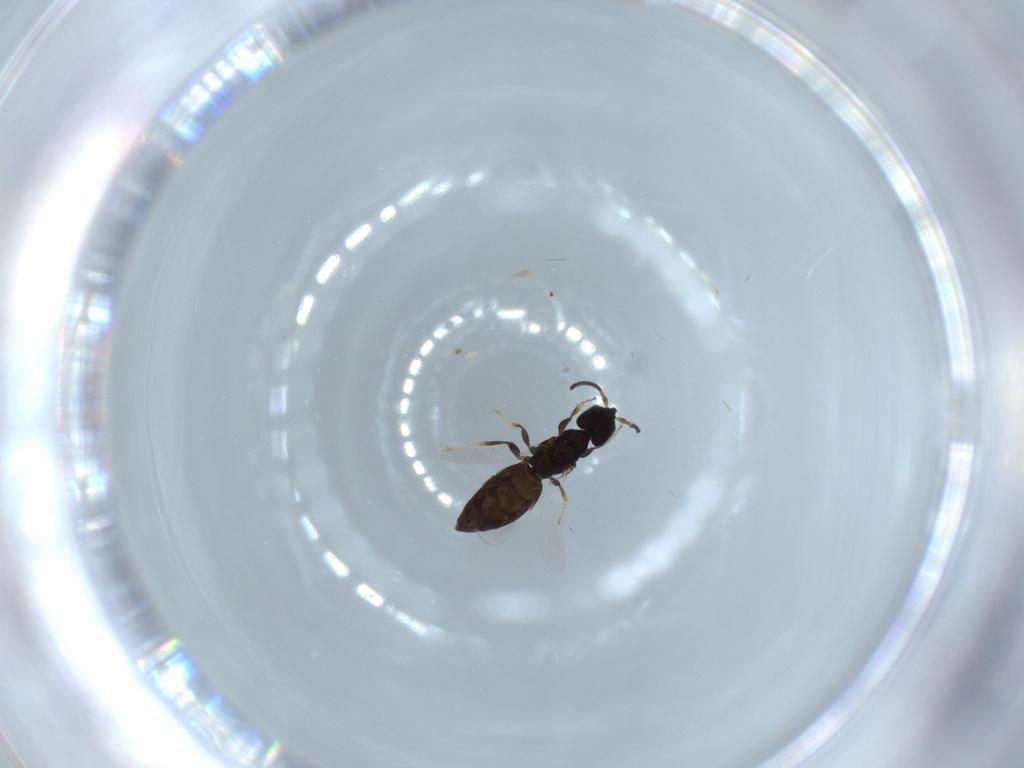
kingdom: Animalia
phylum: Arthropoda
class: Insecta
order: Hymenoptera
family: Bethylidae
